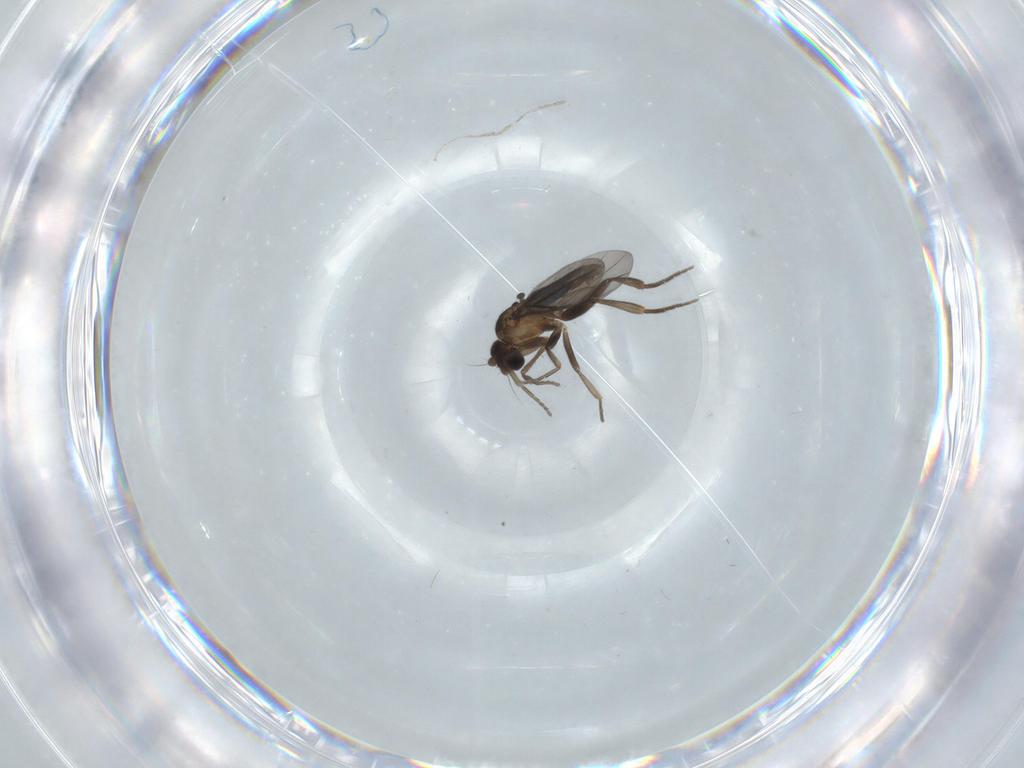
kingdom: Animalia
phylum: Arthropoda
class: Insecta
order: Diptera
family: Phoridae
